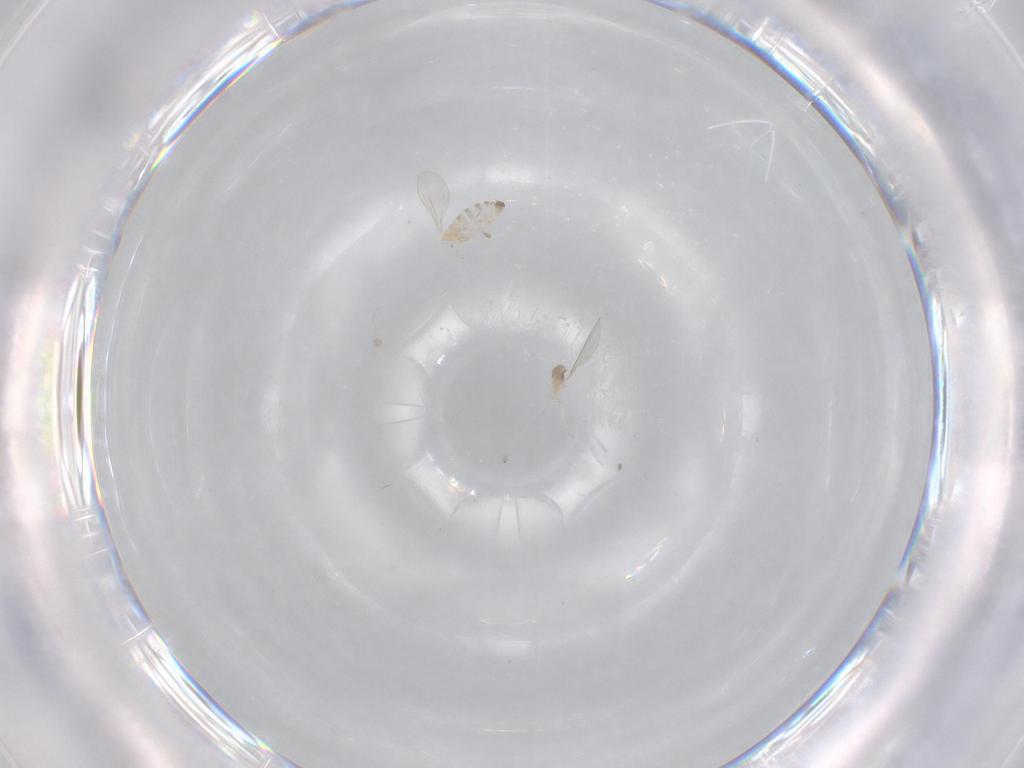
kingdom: Animalia
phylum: Arthropoda
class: Insecta
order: Diptera
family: Cecidomyiidae
